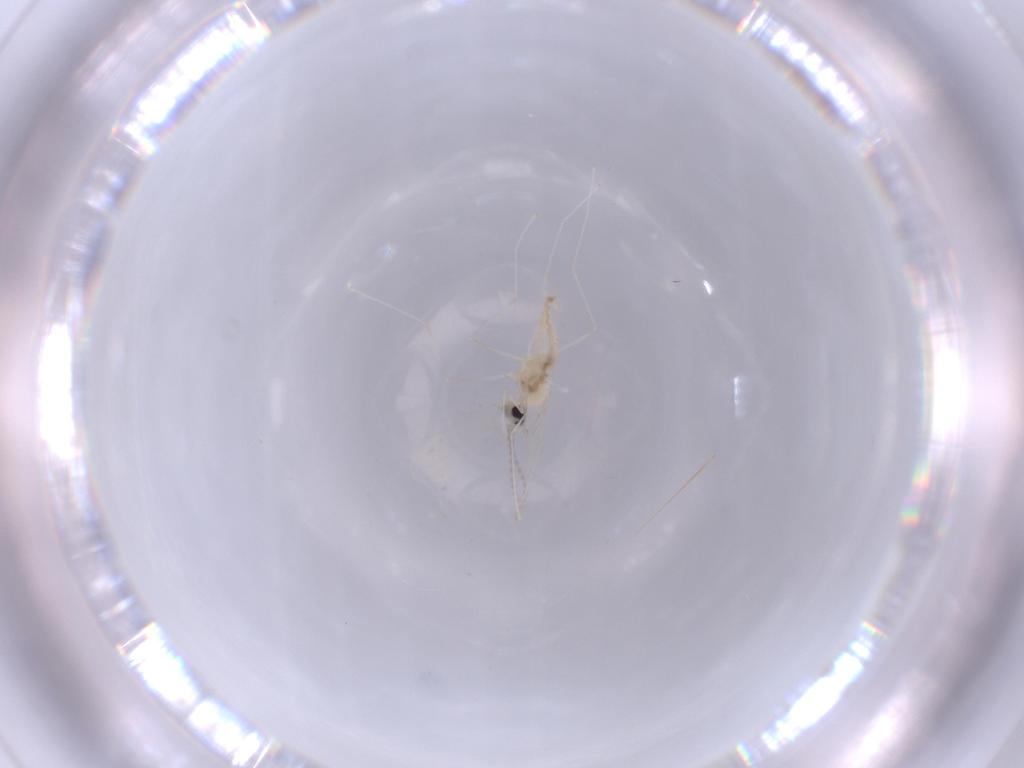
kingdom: Animalia
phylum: Arthropoda
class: Insecta
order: Diptera
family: Cecidomyiidae
